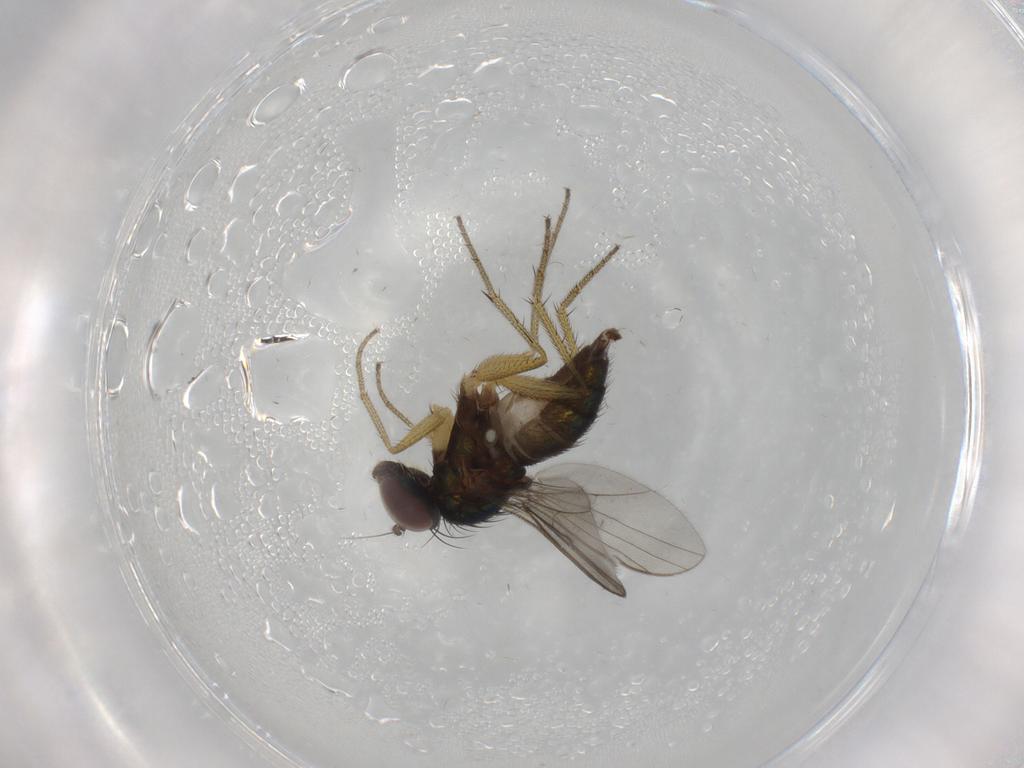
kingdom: Animalia
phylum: Arthropoda
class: Insecta
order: Diptera
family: Dolichopodidae
